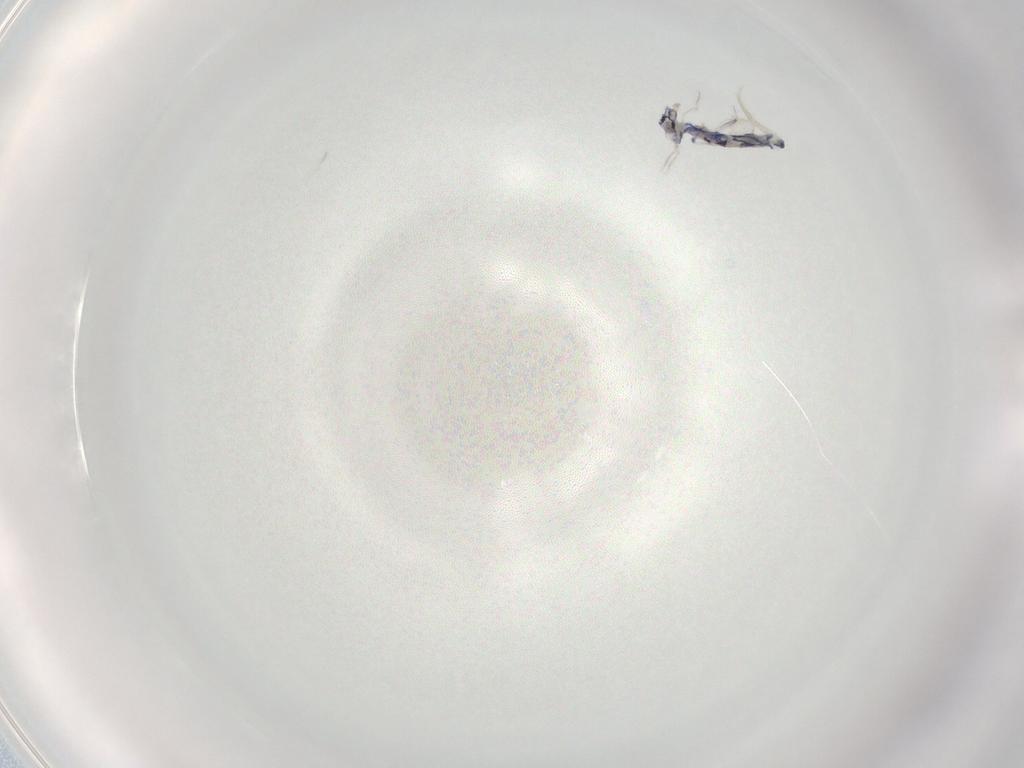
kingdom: Animalia
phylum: Arthropoda
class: Collembola
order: Entomobryomorpha
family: Entomobryidae
